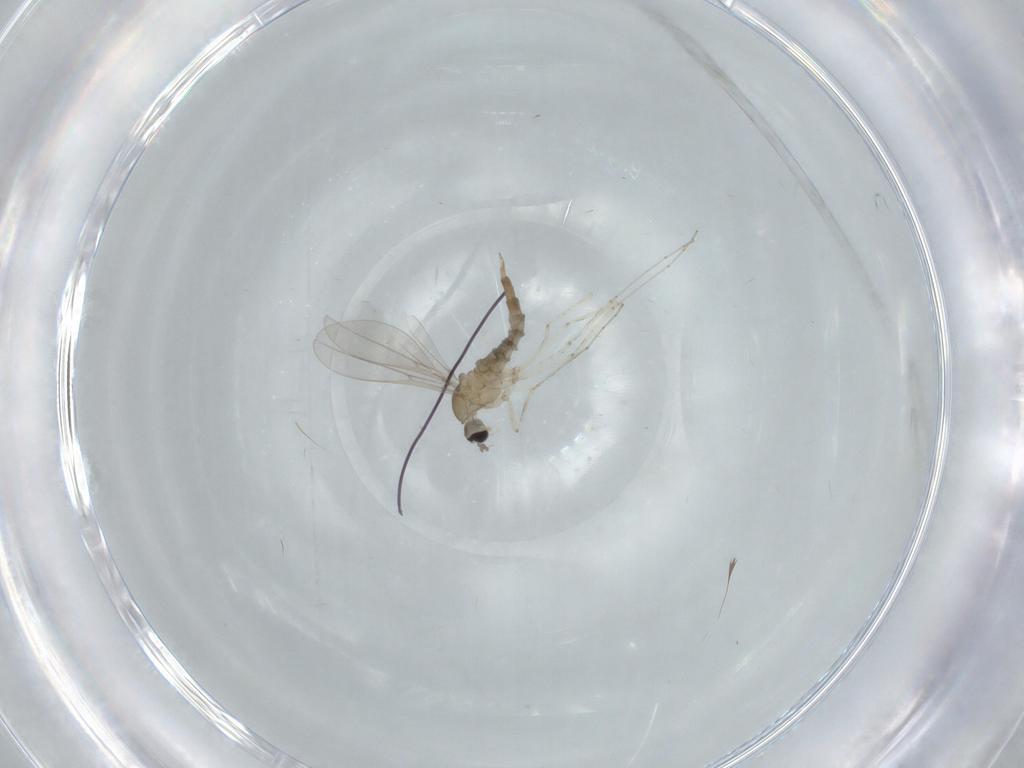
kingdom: Animalia
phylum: Arthropoda
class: Insecta
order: Diptera
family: Cecidomyiidae
